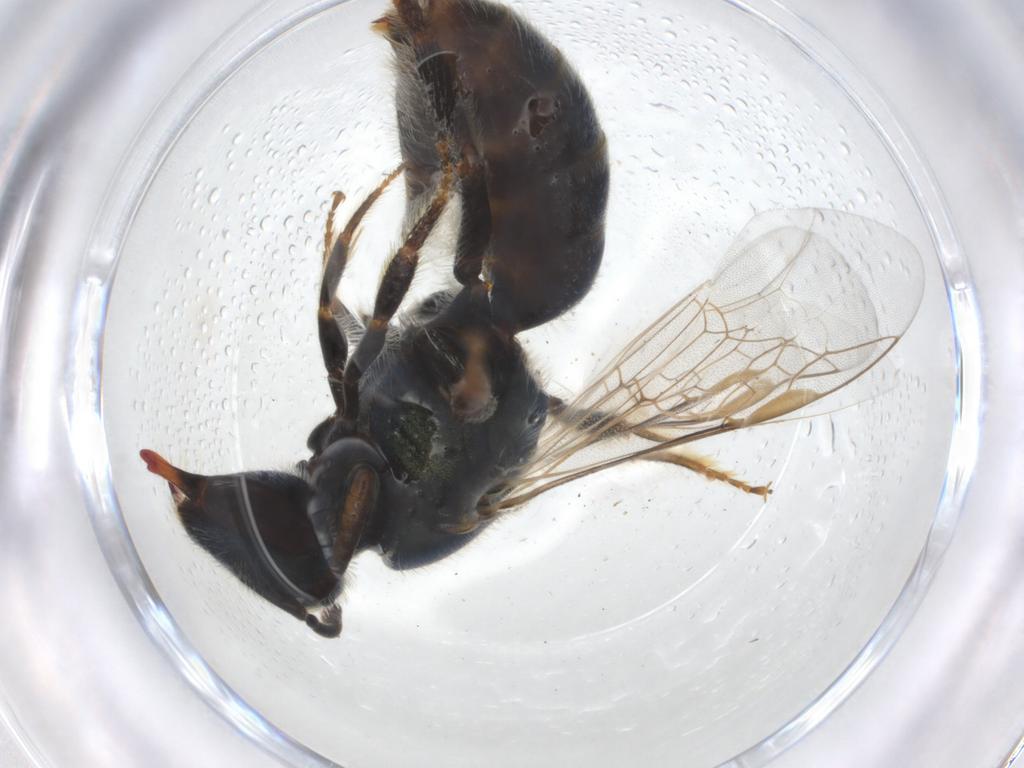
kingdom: Animalia
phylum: Arthropoda
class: Insecta
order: Hymenoptera
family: Halictidae
